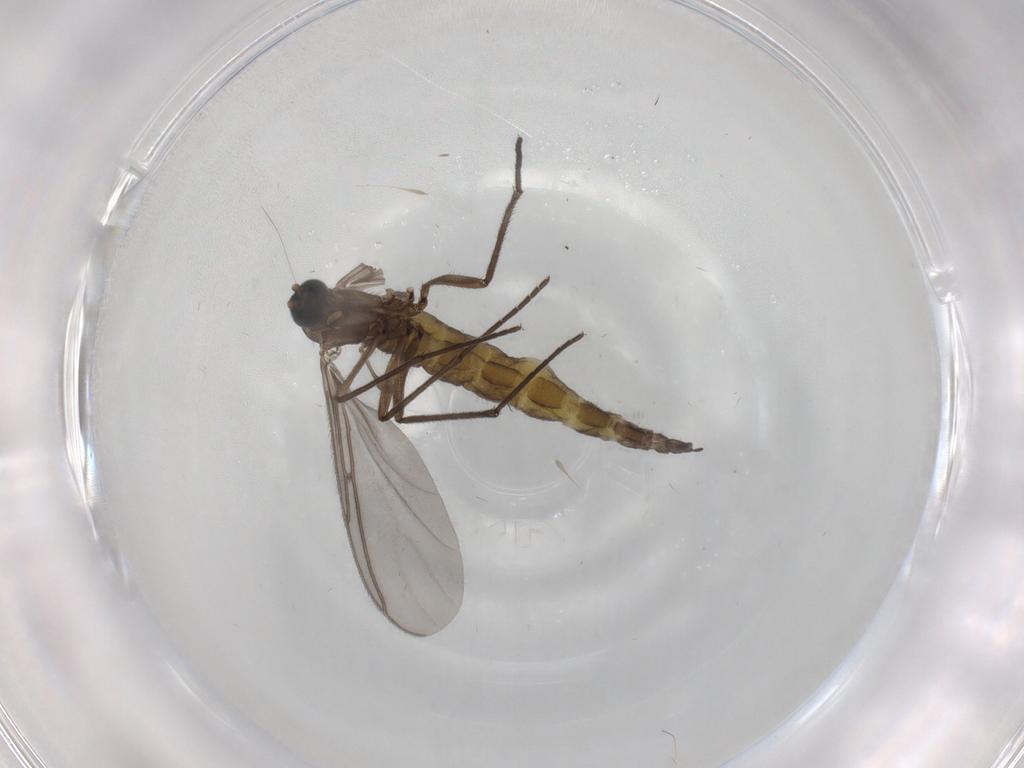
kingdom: Animalia
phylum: Arthropoda
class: Insecta
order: Diptera
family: Sciaridae
